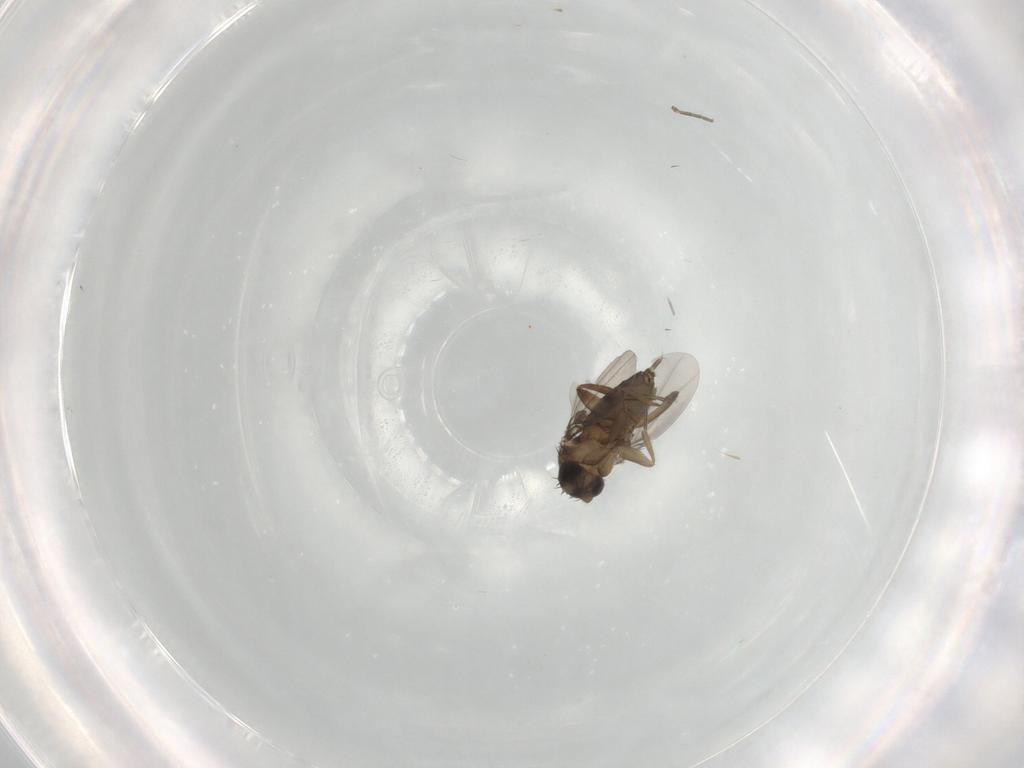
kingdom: Animalia
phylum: Arthropoda
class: Insecta
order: Diptera
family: Phoridae
